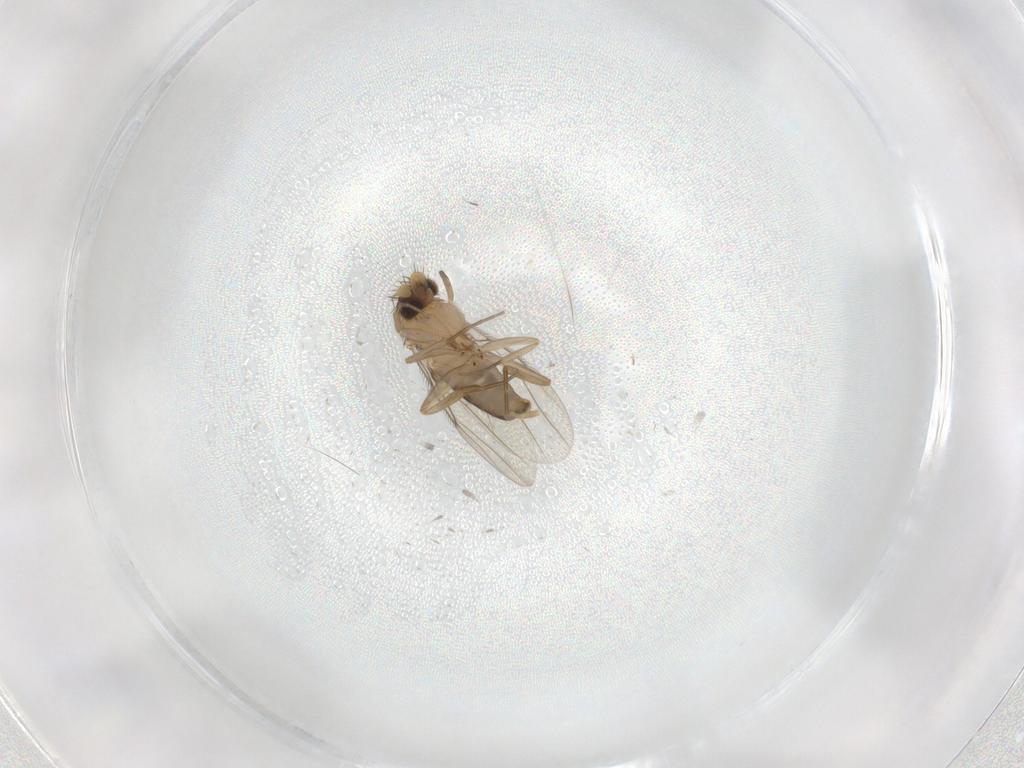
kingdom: Animalia
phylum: Arthropoda
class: Insecta
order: Diptera
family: Phoridae
